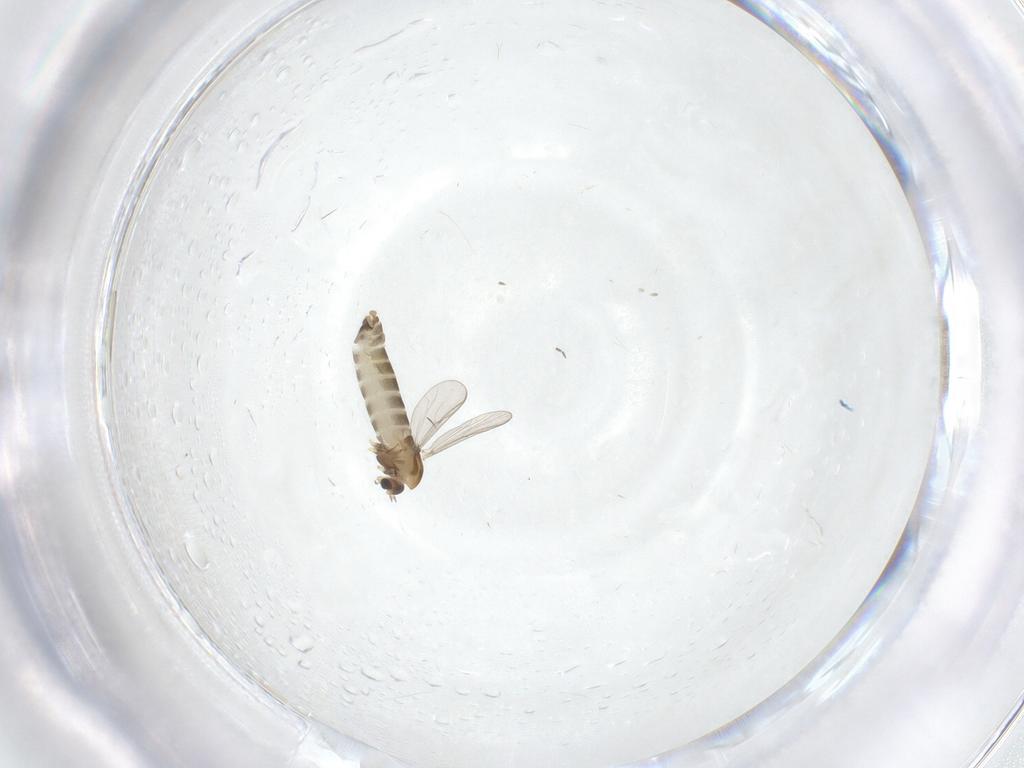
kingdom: Animalia
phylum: Arthropoda
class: Insecta
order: Diptera
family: Chironomidae
